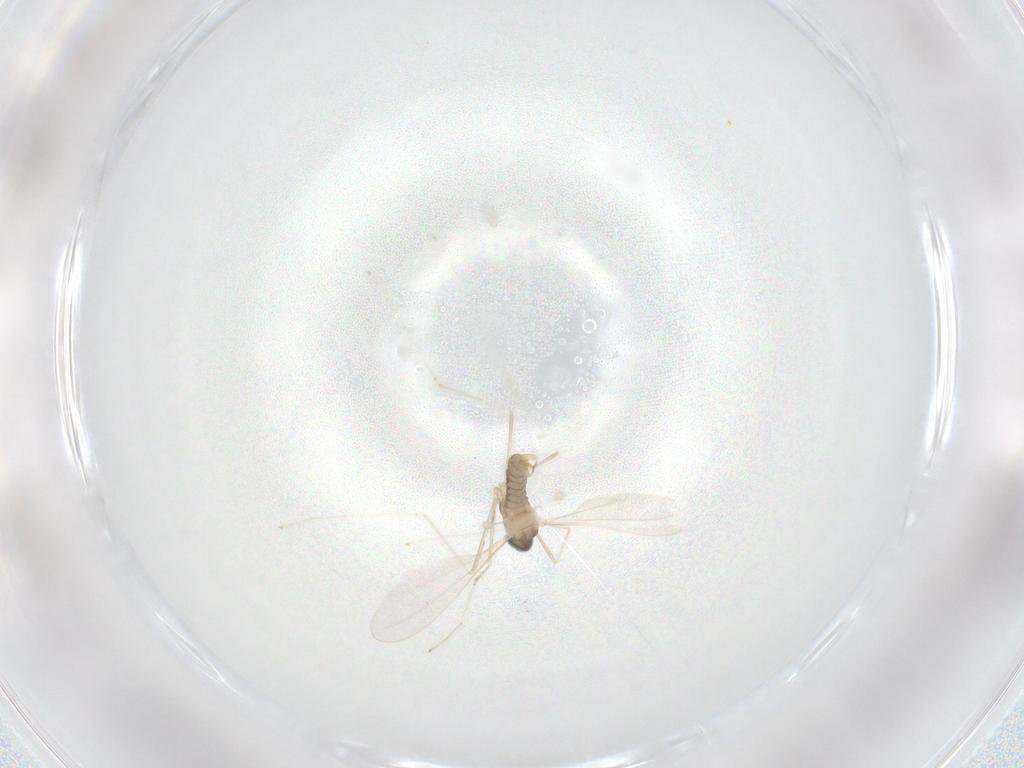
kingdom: Animalia
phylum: Arthropoda
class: Insecta
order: Diptera
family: Cecidomyiidae
